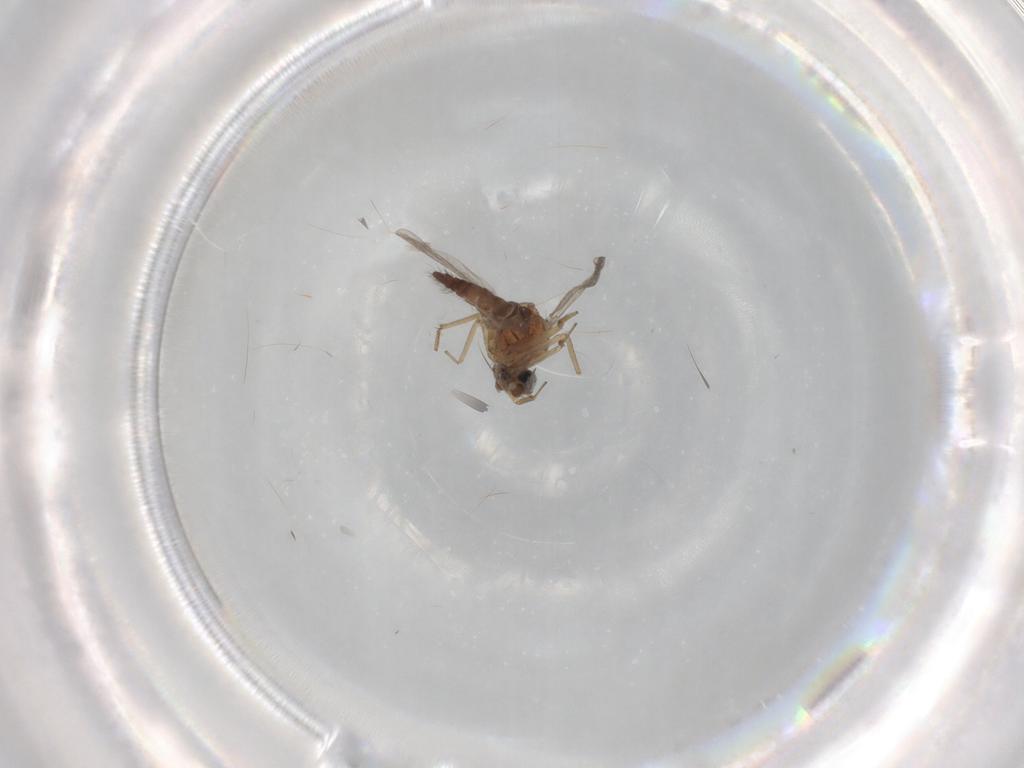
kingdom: Animalia
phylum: Arthropoda
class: Insecta
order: Diptera
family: Ceratopogonidae
